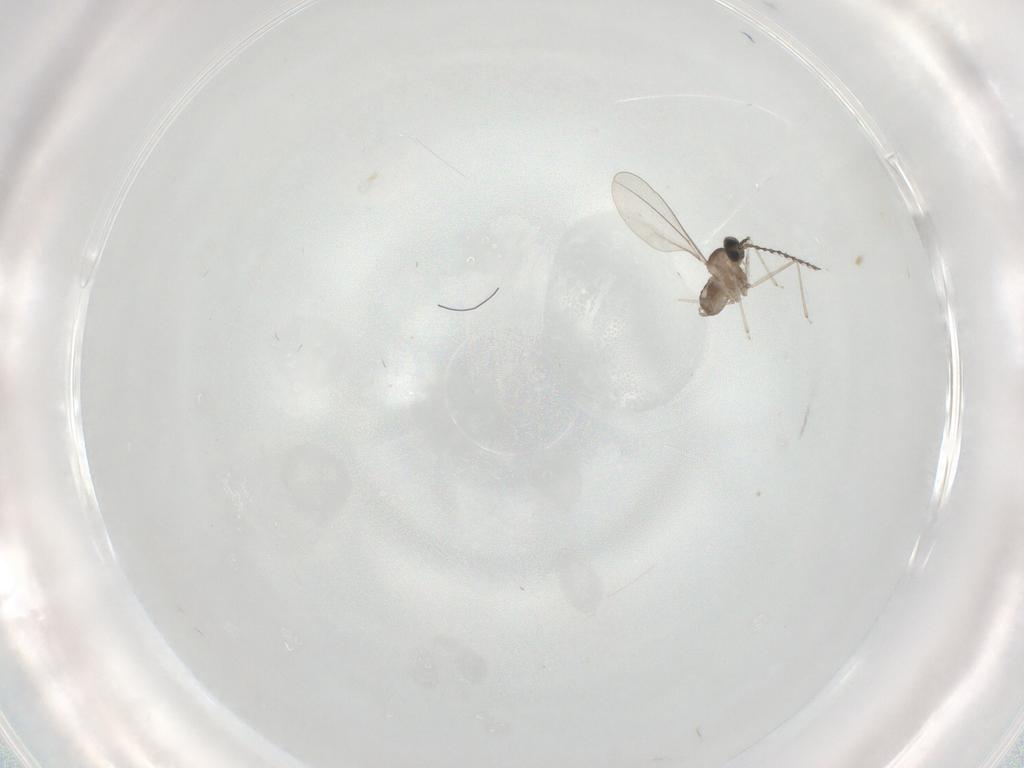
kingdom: Animalia
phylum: Arthropoda
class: Insecta
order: Diptera
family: Cecidomyiidae
